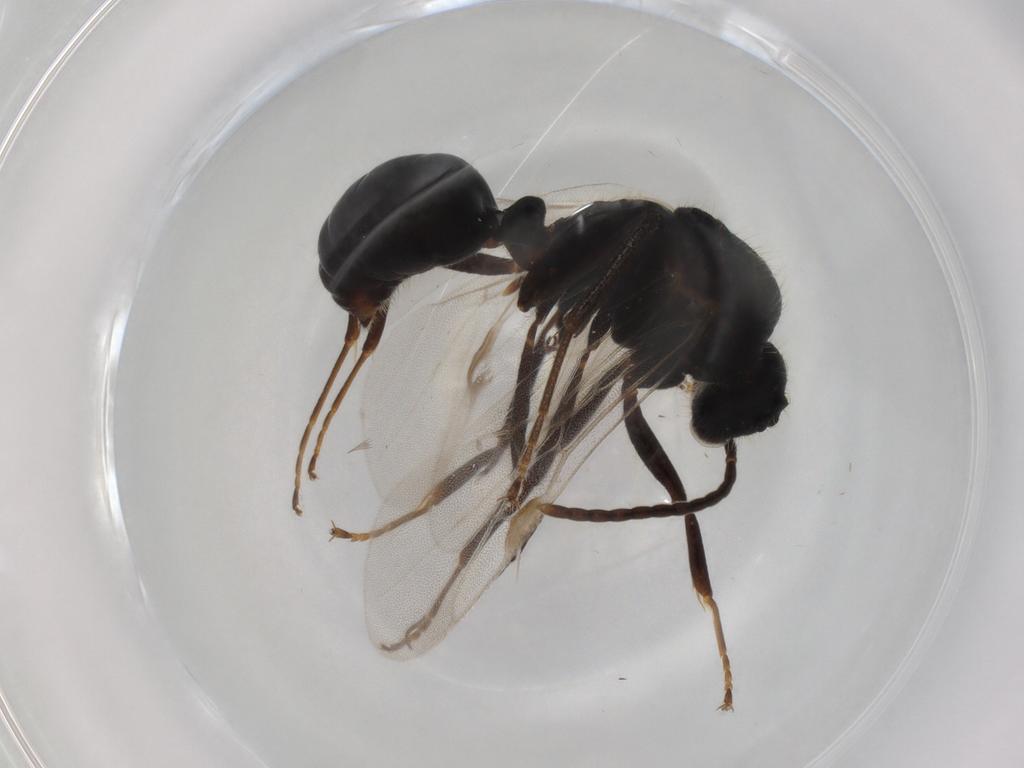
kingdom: Animalia
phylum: Arthropoda
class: Insecta
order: Hymenoptera
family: Formicidae
